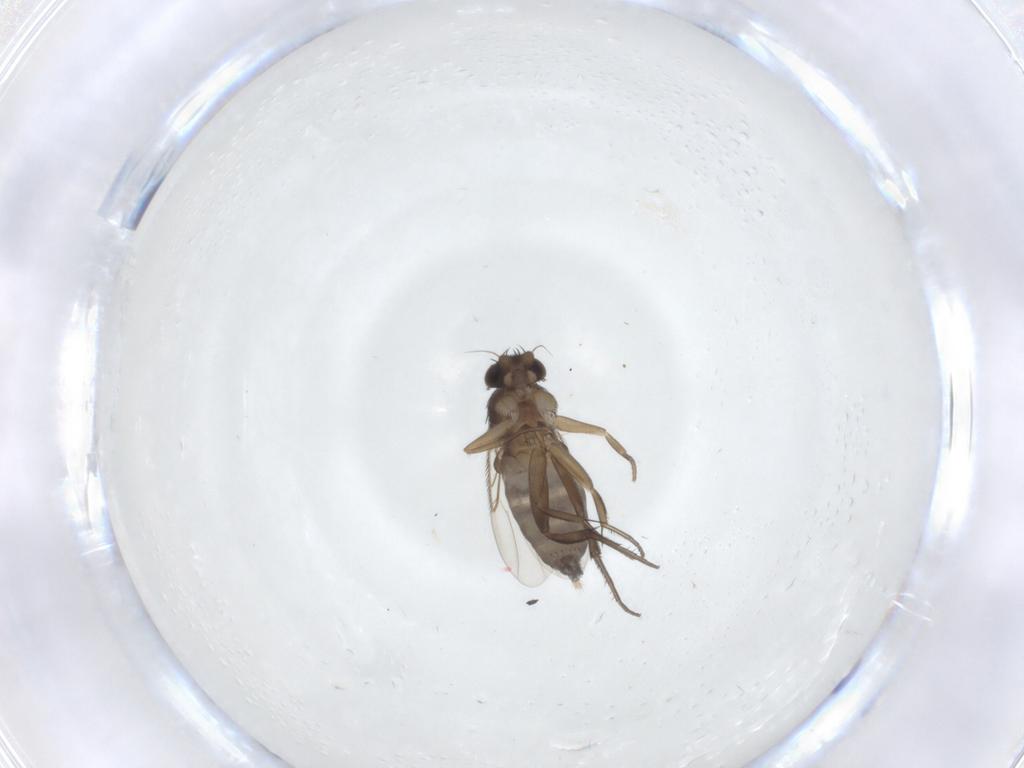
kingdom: Animalia
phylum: Arthropoda
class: Insecta
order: Diptera
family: Phoridae
